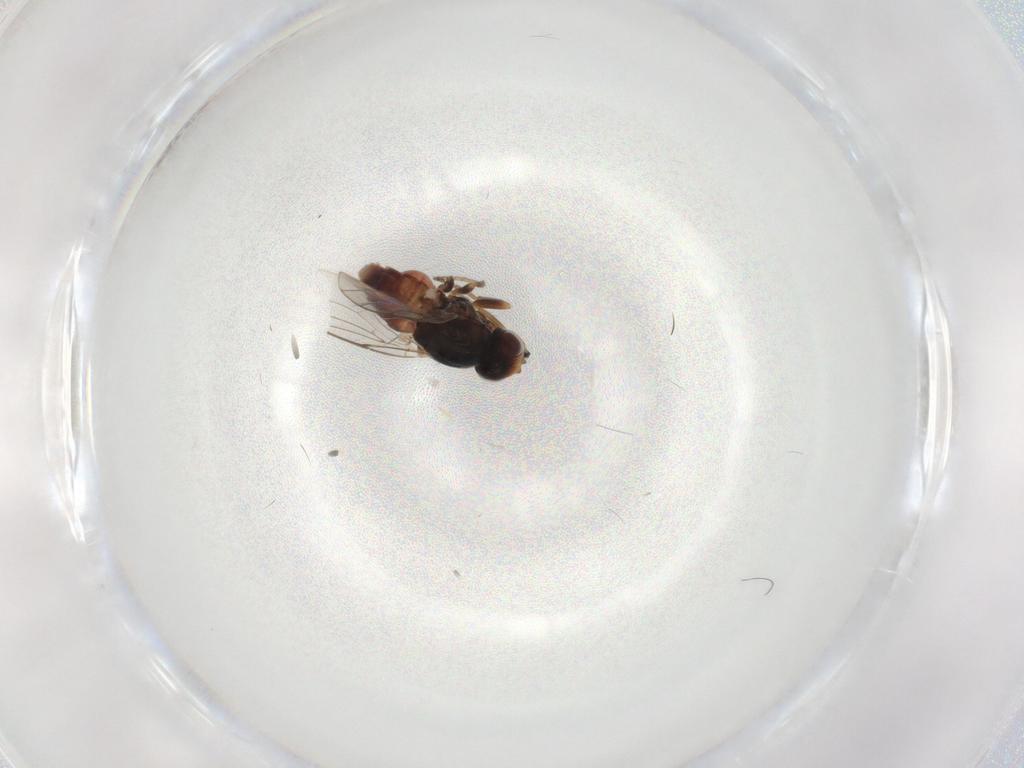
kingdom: Animalia
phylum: Arthropoda
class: Insecta
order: Diptera
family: Chloropidae
